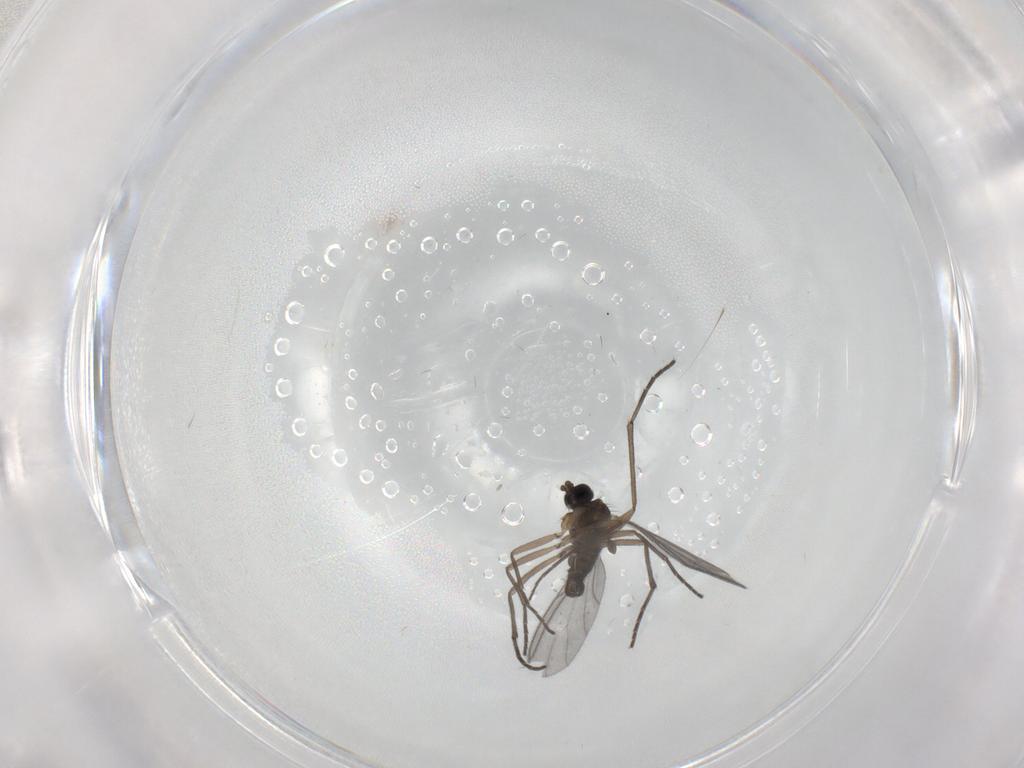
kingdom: Animalia
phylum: Arthropoda
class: Insecta
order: Diptera
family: Sciaridae
